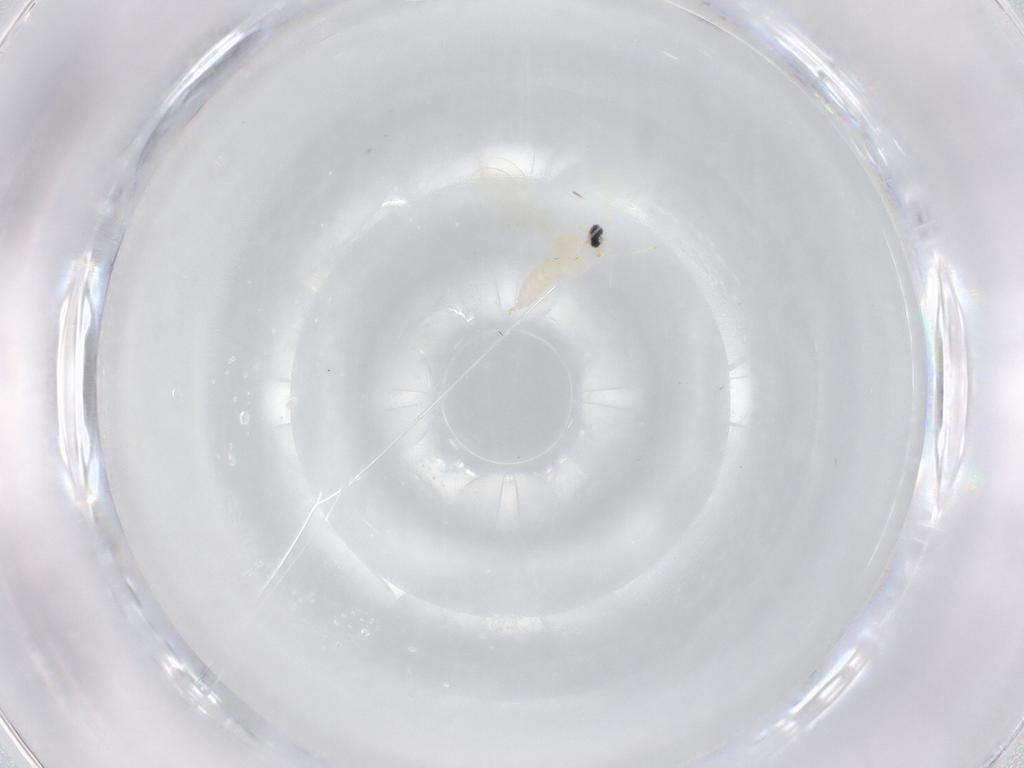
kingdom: Animalia
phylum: Arthropoda
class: Insecta
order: Diptera
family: Cecidomyiidae
